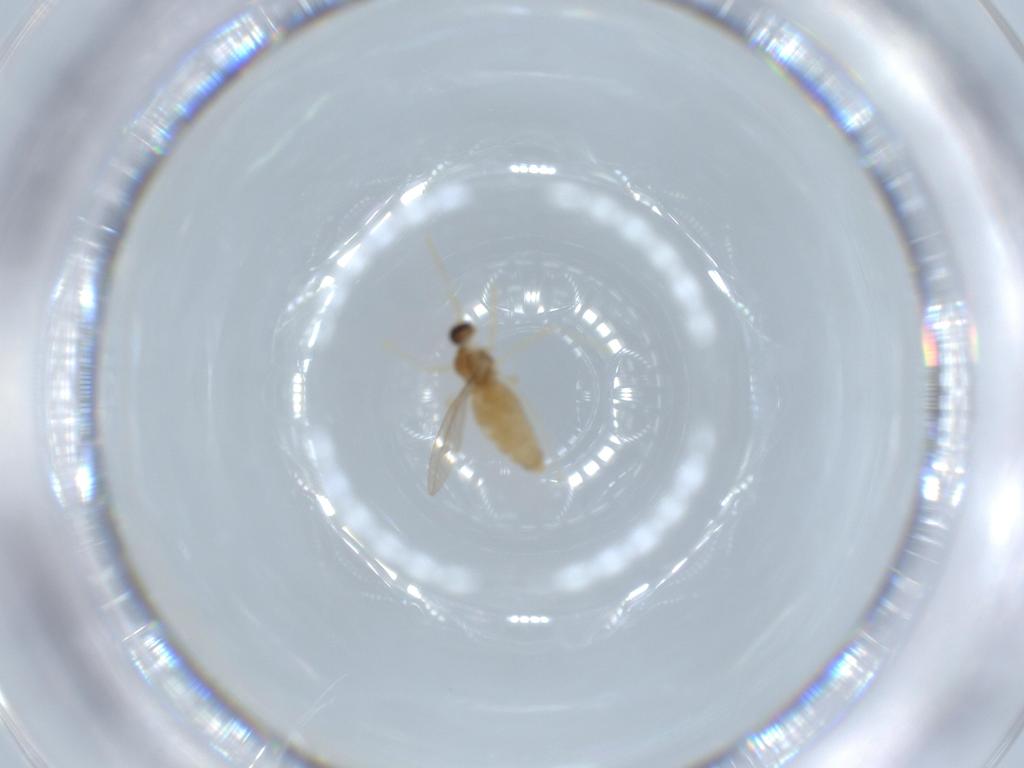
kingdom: Animalia
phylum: Arthropoda
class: Insecta
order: Diptera
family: Cecidomyiidae
